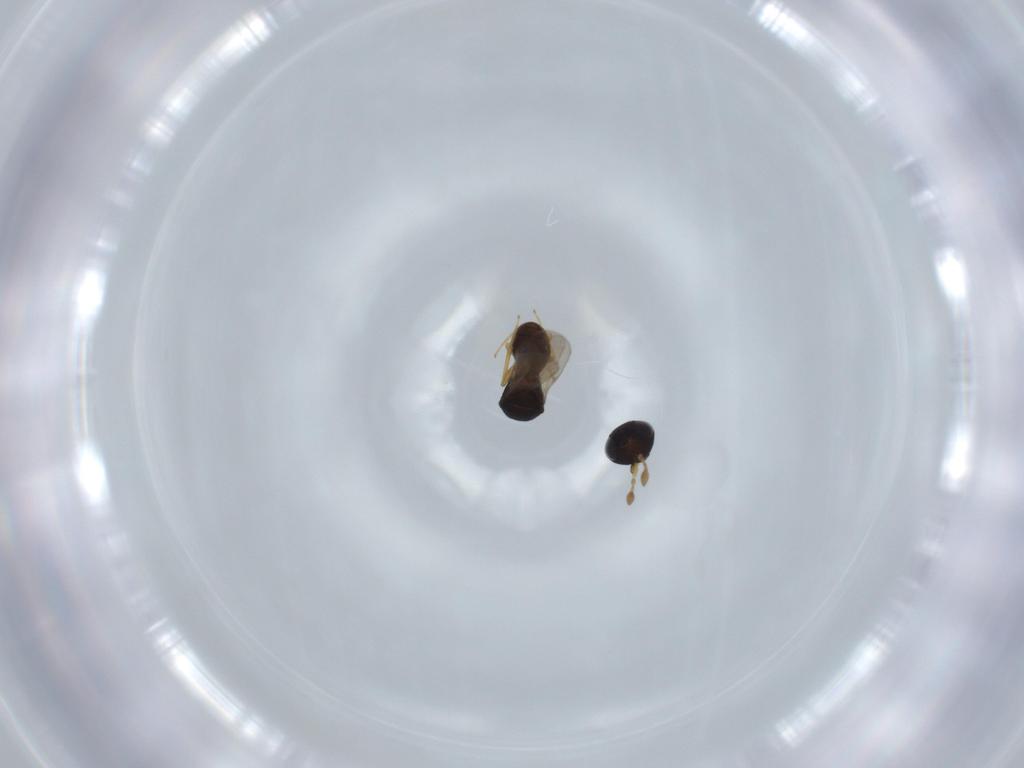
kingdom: Animalia
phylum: Arthropoda
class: Insecta
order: Hymenoptera
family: Scelionidae
